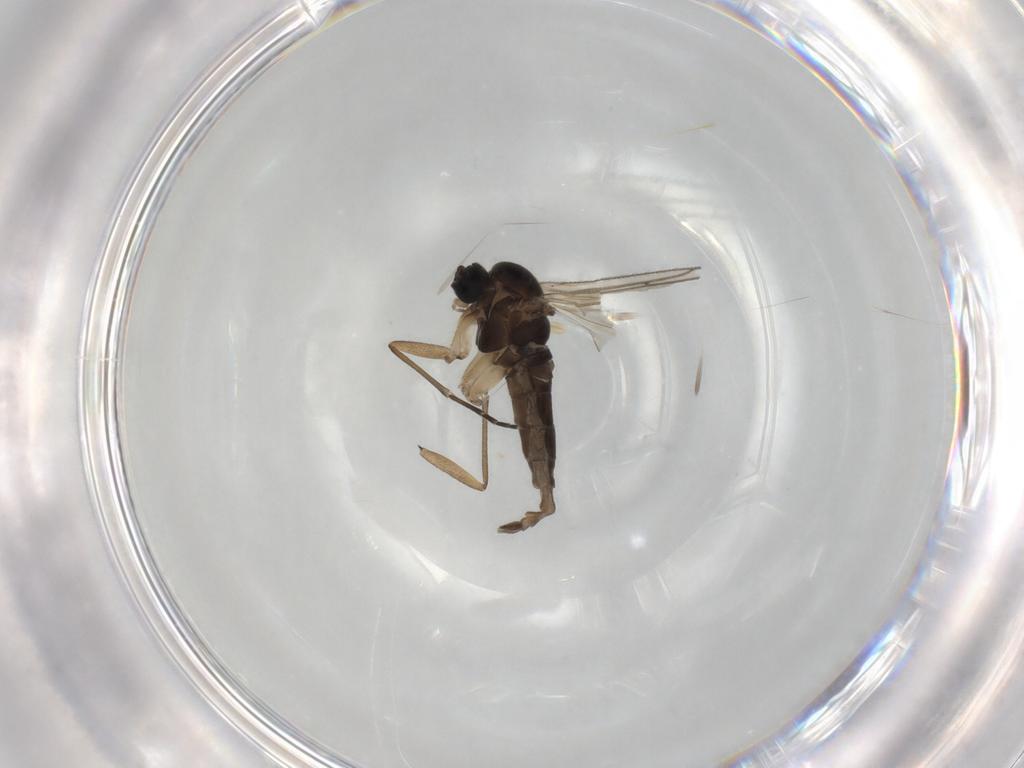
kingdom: Animalia
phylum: Arthropoda
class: Insecta
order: Diptera
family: Sciaridae
